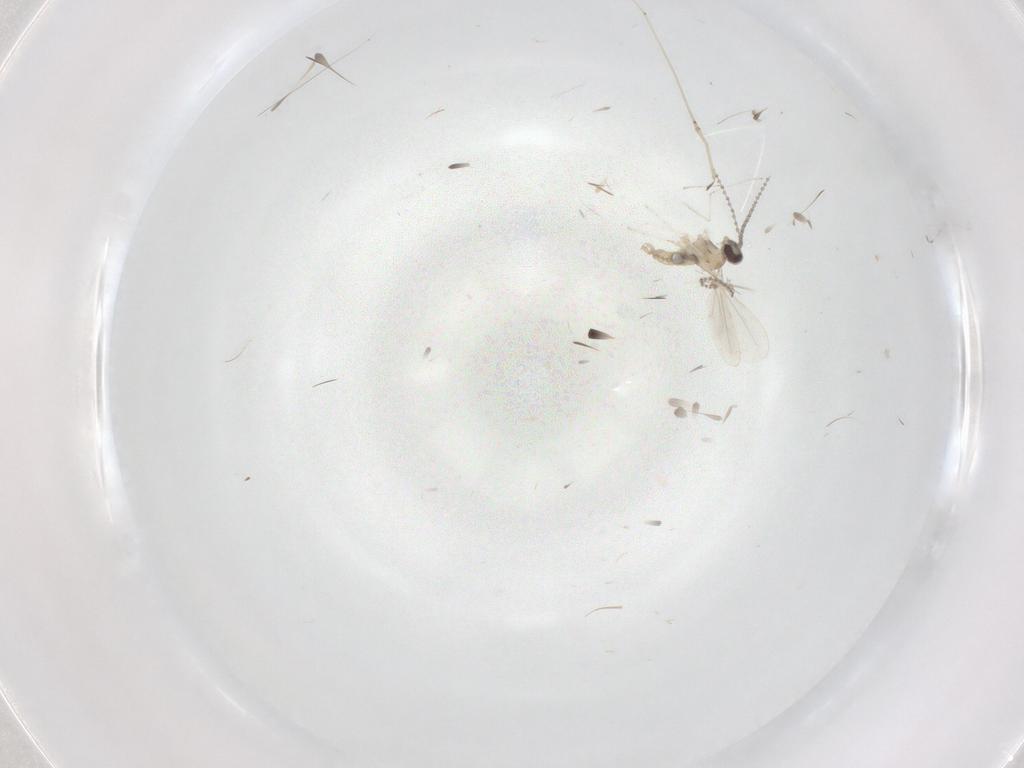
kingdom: Animalia
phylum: Arthropoda
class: Insecta
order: Diptera
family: Cecidomyiidae
